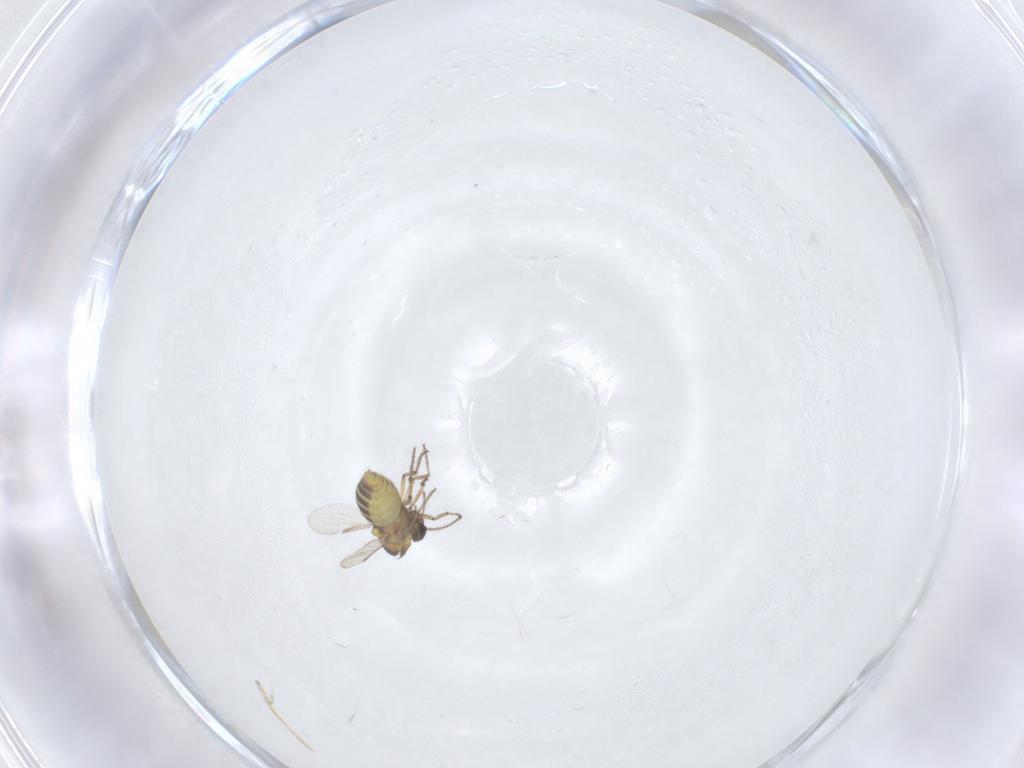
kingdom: Animalia
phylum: Arthropoda
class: Insecta
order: Diptera
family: Ceratopogonidae
